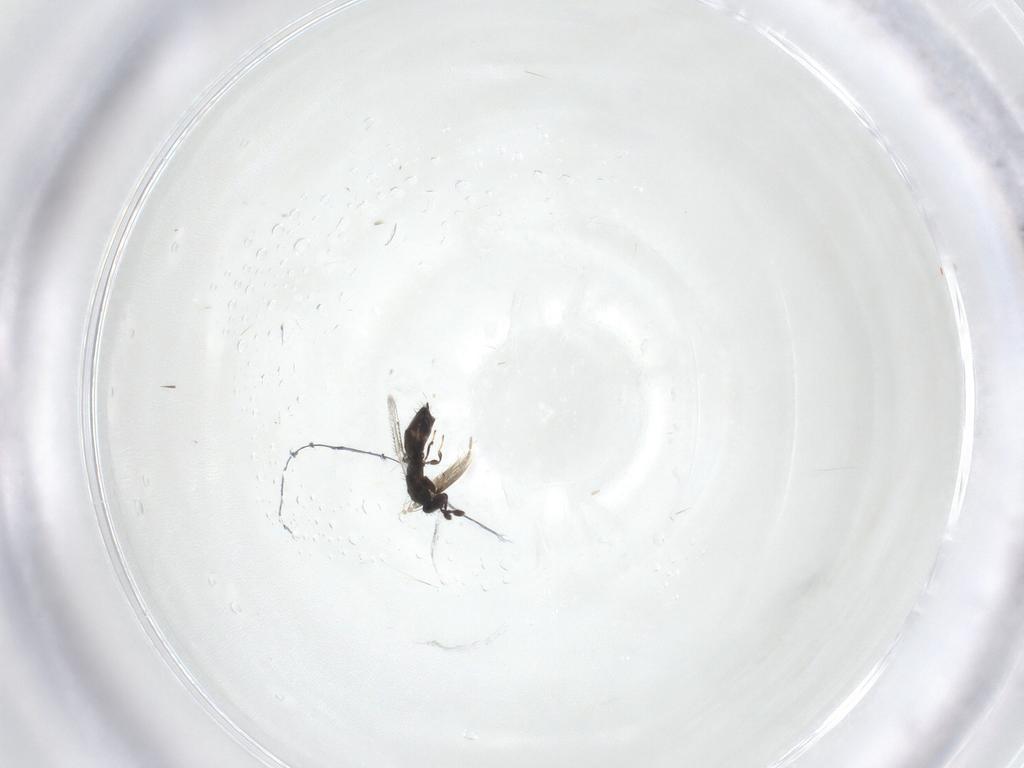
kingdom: Animalia
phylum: Arthropoda
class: Insecta
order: Hymenoptera
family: Pirenidae
